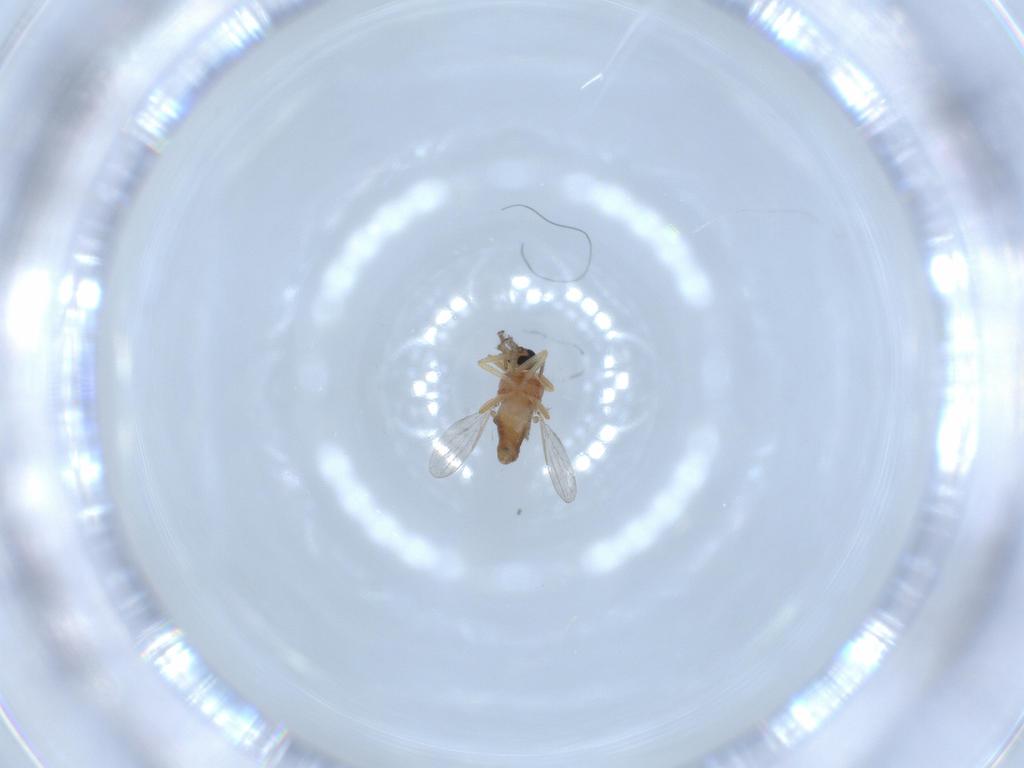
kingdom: Animalia
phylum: Arthropoda
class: Insecta
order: Diptera
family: Ceratopogonidae
